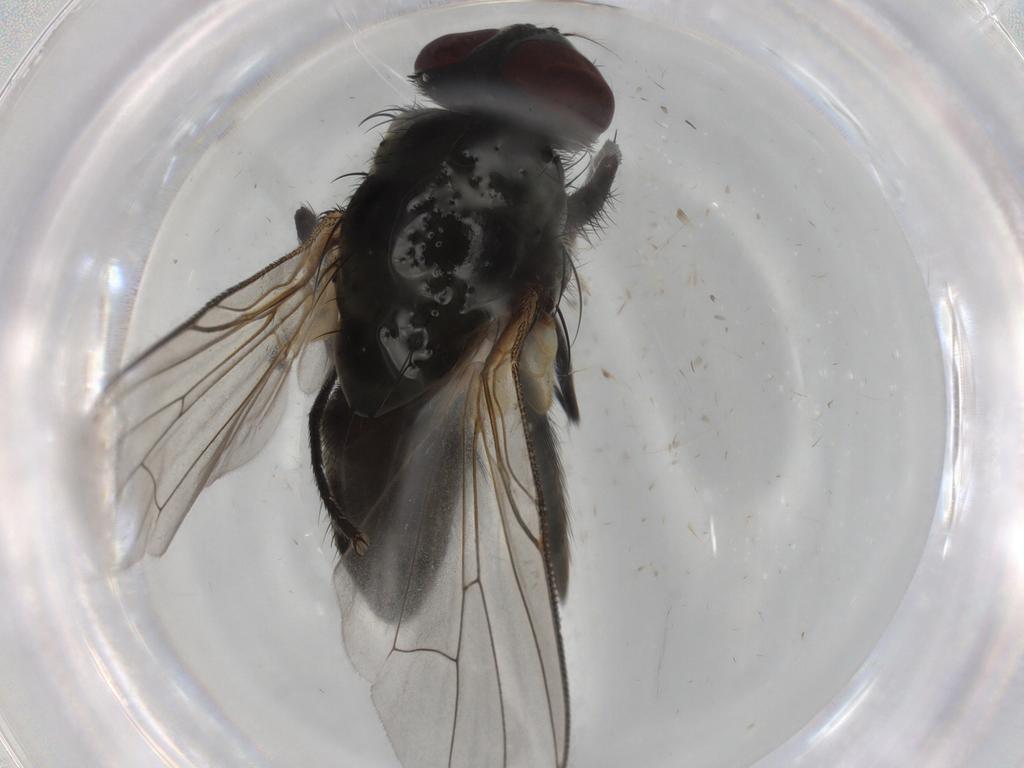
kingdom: Animalia
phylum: Arthropoda
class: Insecta
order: Diptera
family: Muscidae
